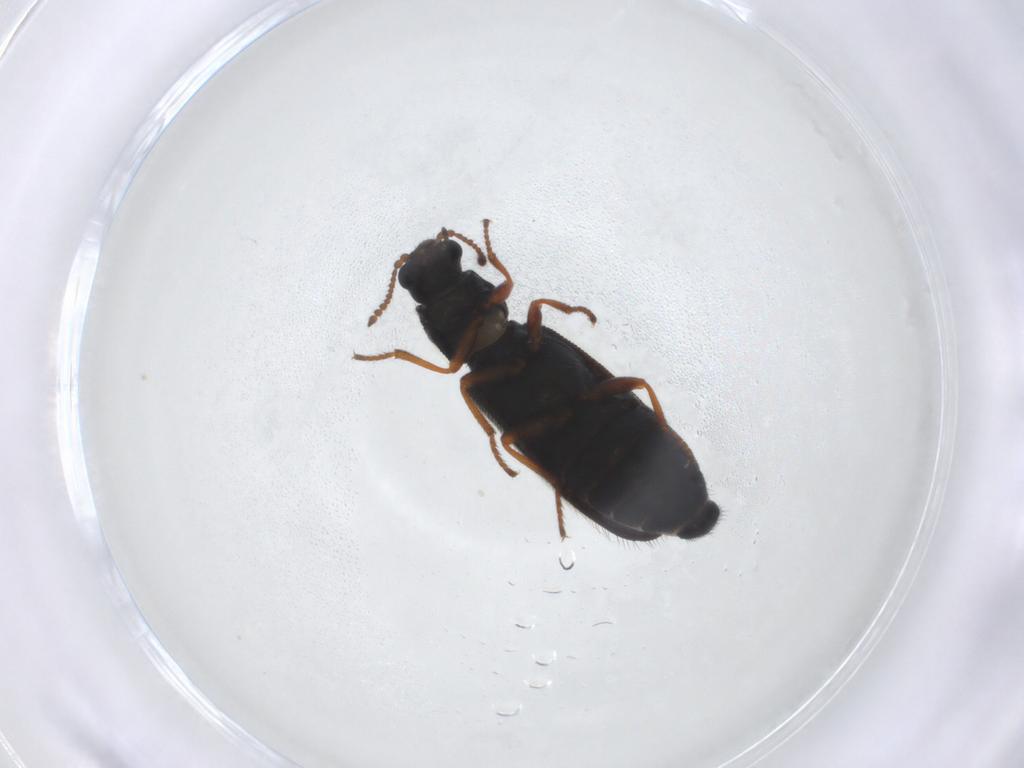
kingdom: Animalia
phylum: Arthropoda
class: Insecta
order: Coleoptera
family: Melyridae
